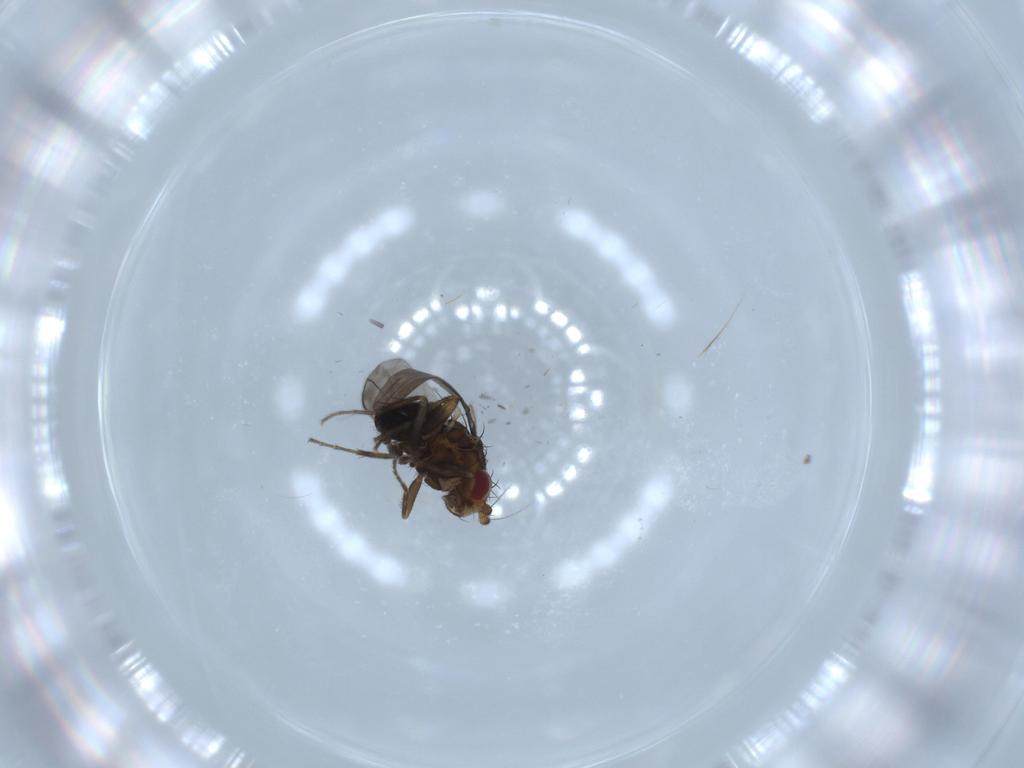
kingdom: Animalia
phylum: Arthropoda
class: Insecta
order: Diptera
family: Sphaeroceridae
